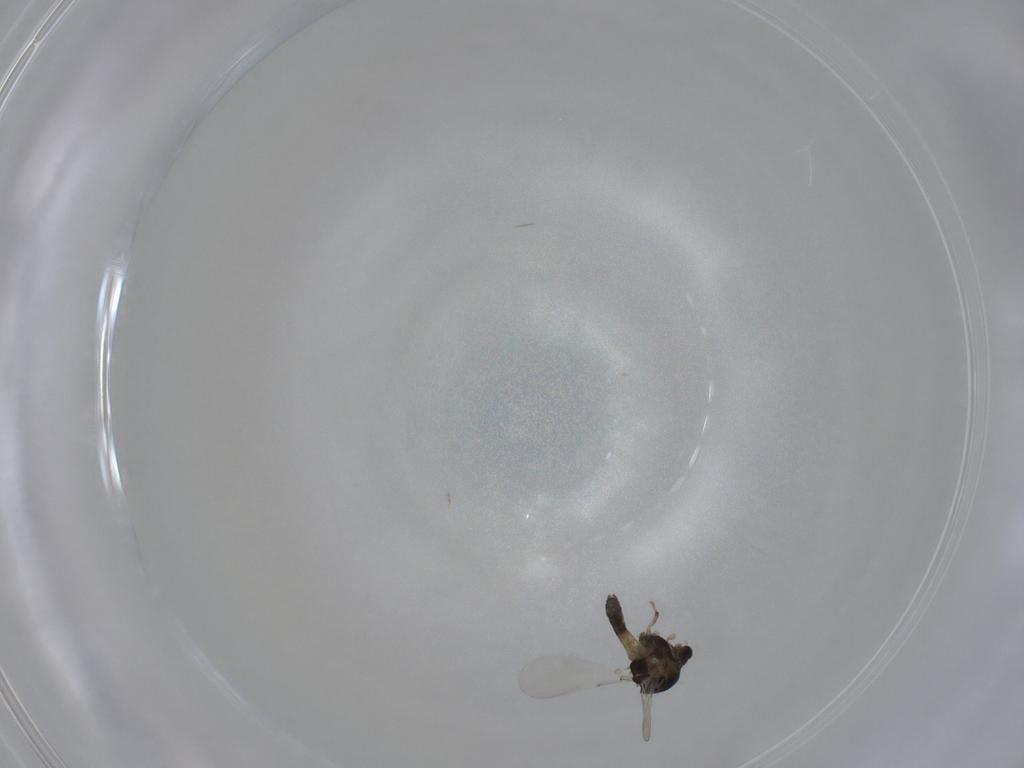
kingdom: Animalia
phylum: Arthropoda
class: Insecta
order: Diptera
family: Chironomidae
